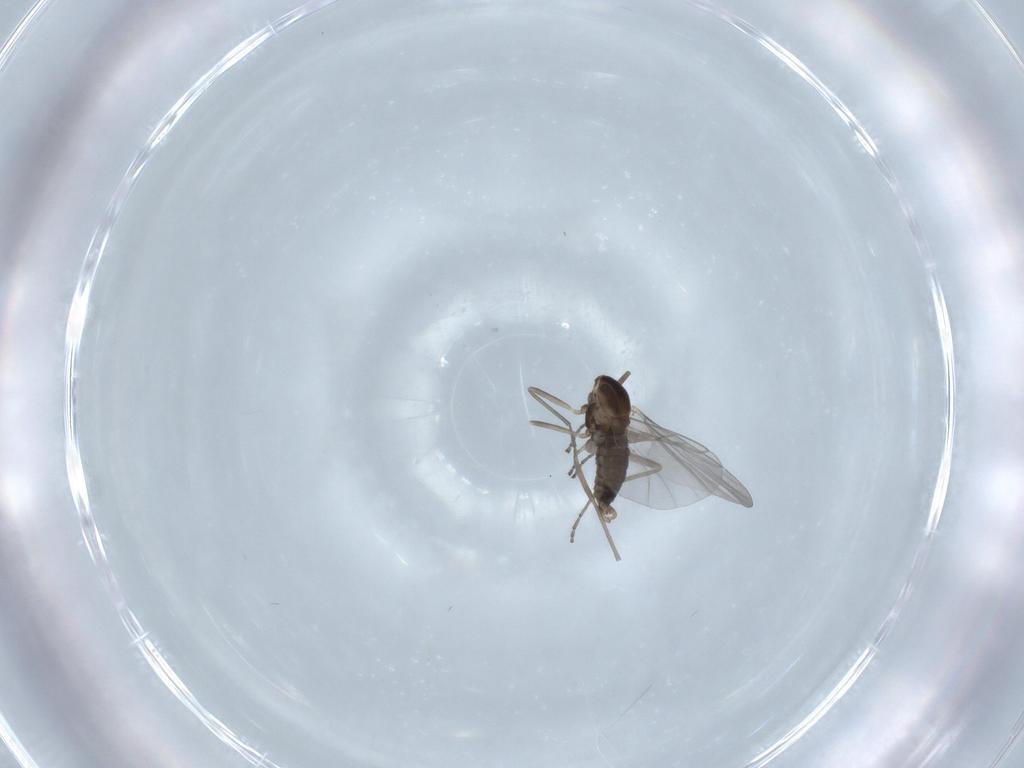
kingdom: Animalia
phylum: Arthropoda
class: Insecta
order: Diptera
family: Cecidomyiidae
